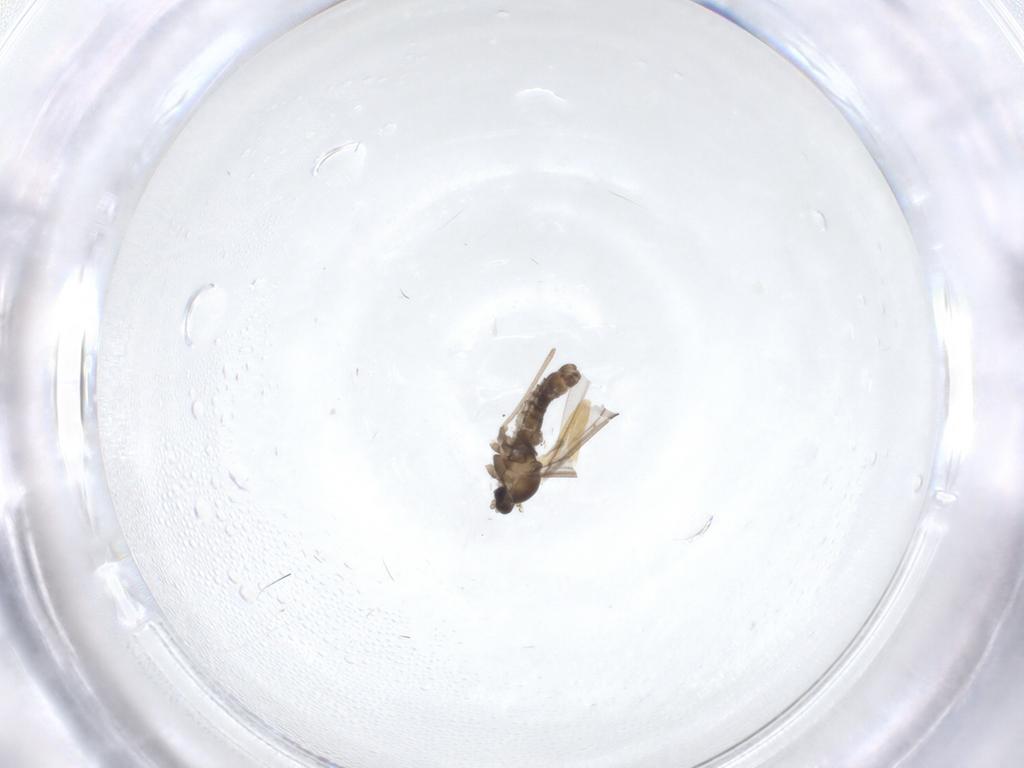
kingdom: Animalia
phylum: Arthropoda
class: Insecta
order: Diptera
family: Cecidomyiidae
